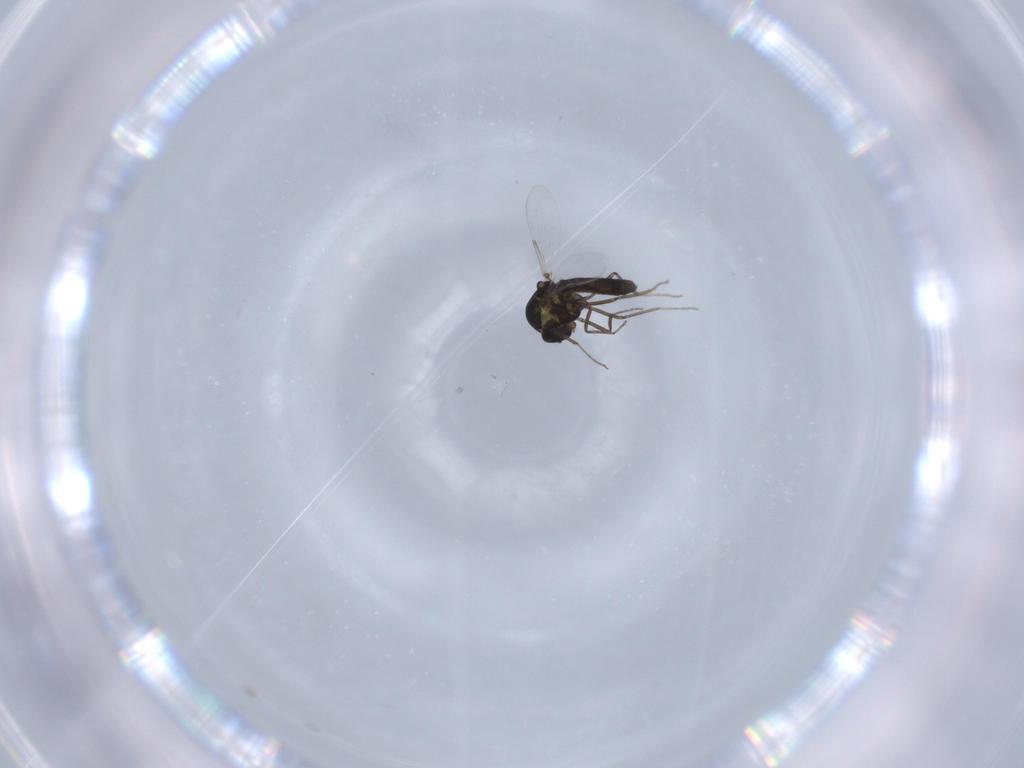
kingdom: Animalia
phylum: Arthropoda
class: Insecta
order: Diptera
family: Ceratopogonidae
